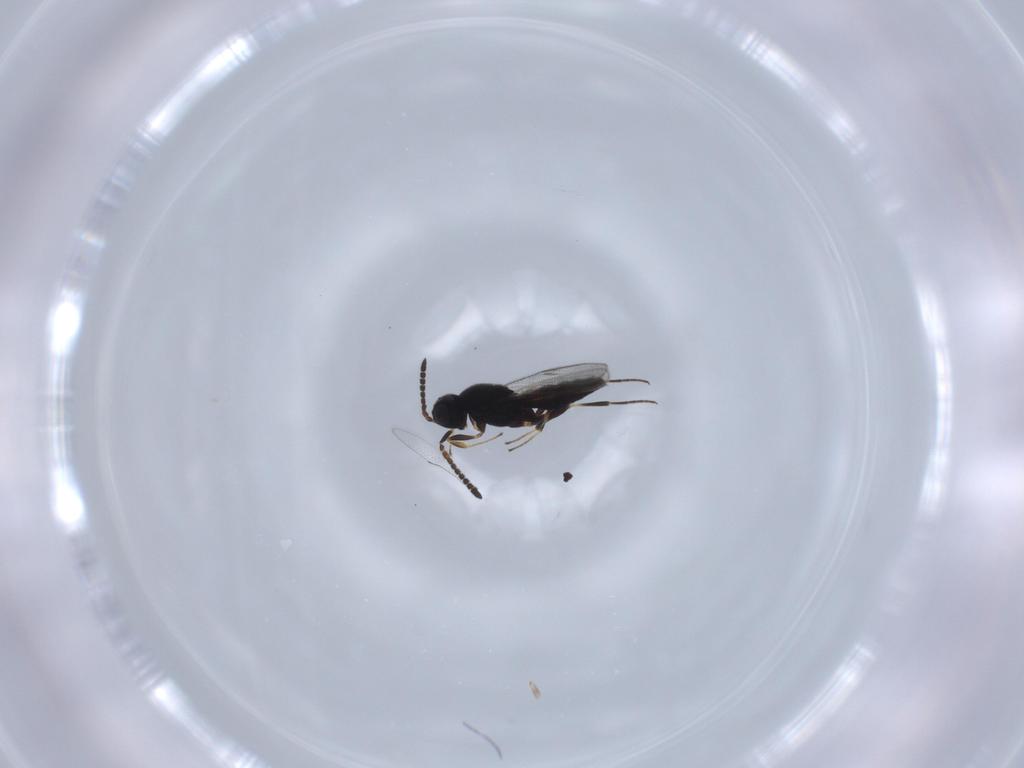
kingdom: Animalia
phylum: Arthropoda
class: Insecta
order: Hymenoptera
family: Scelionidae
